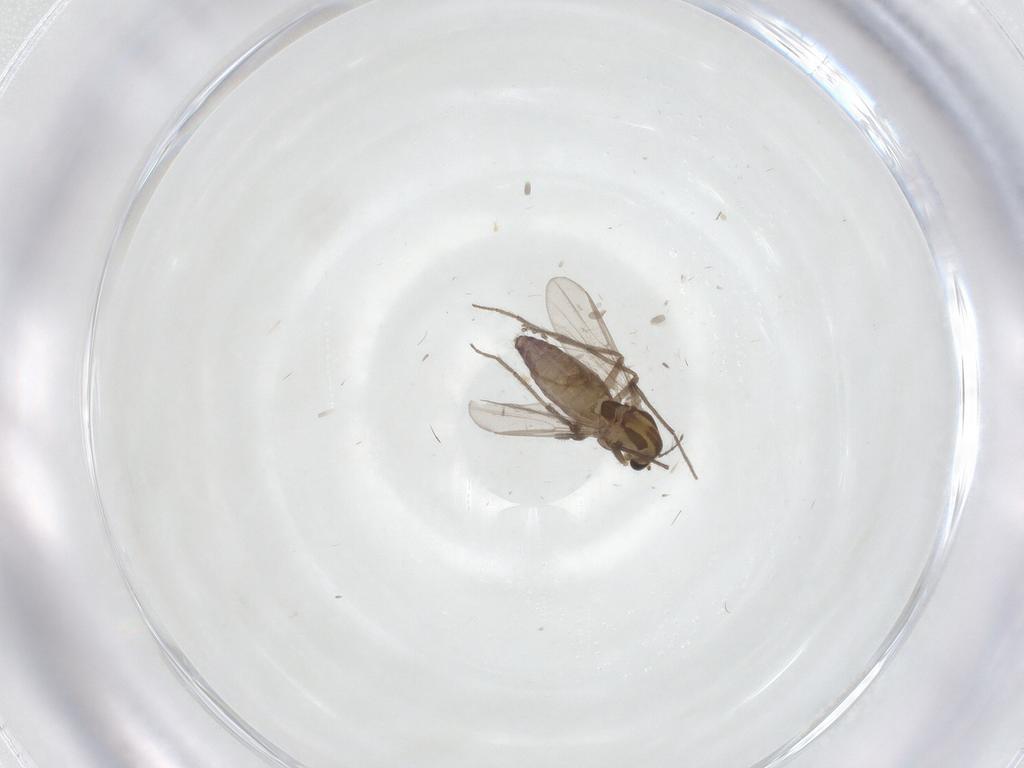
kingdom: Animalia
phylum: Arthropoda
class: Insecta
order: Diptera
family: Chironomidae
